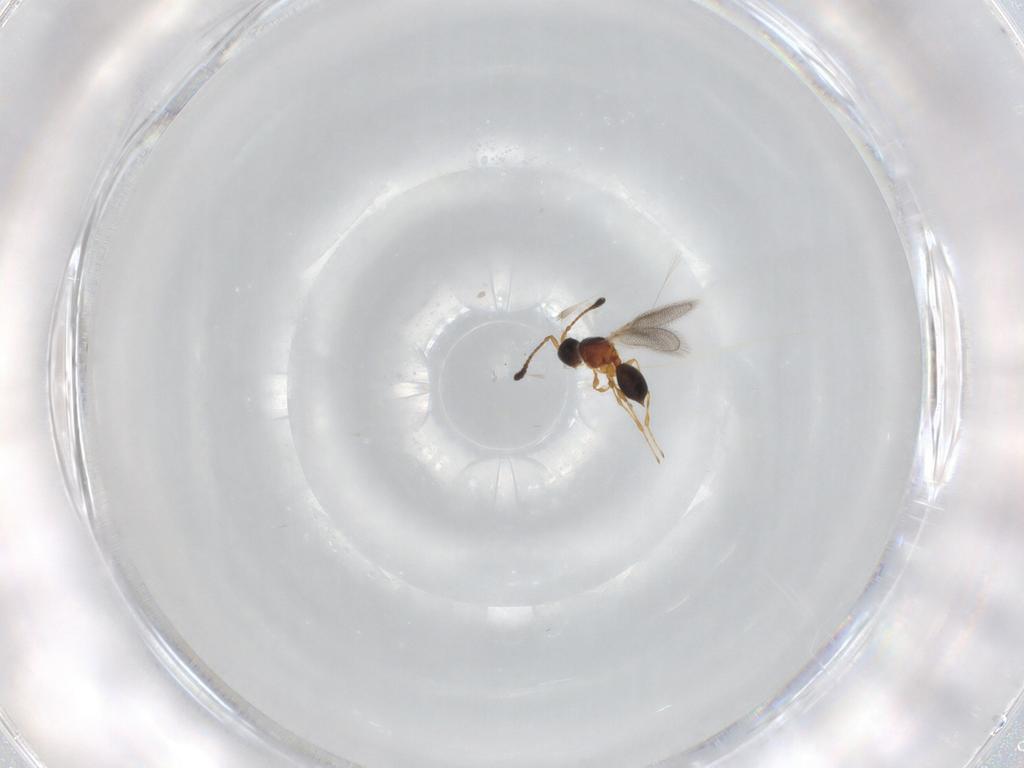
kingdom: Animalia
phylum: Arthropoda
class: Insecta
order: Hymenoptera
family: Diapriidae
